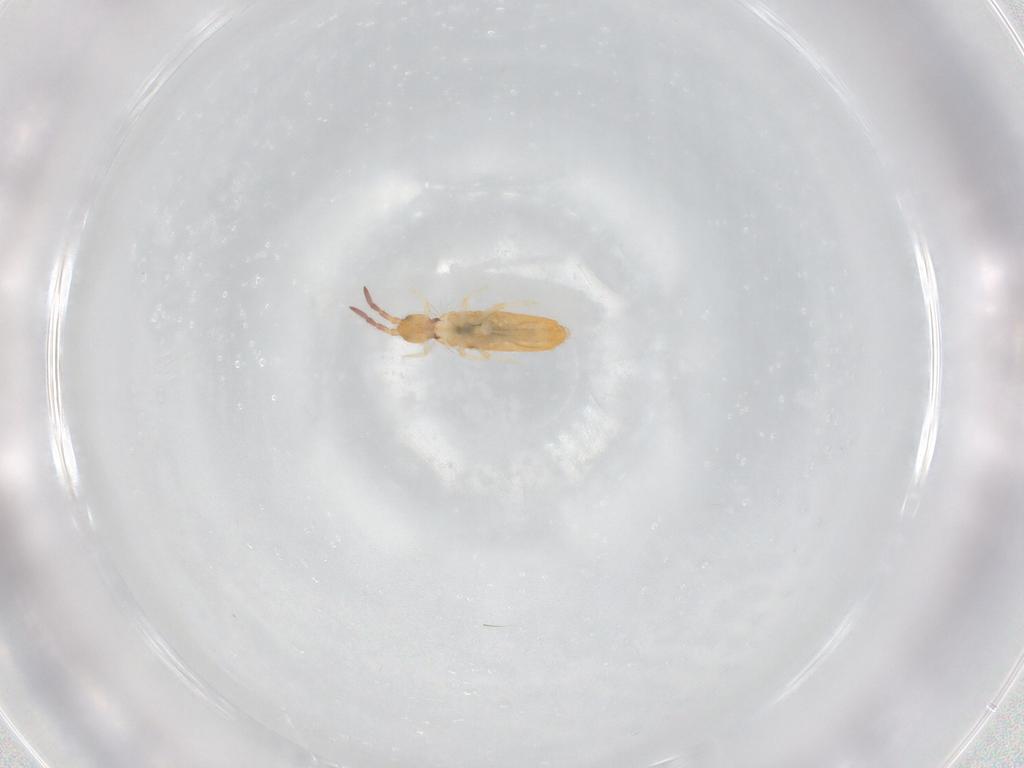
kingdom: Animalia
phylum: Arthropoda
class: Collembola
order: Entomobryomorpha
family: Entomobryidae
